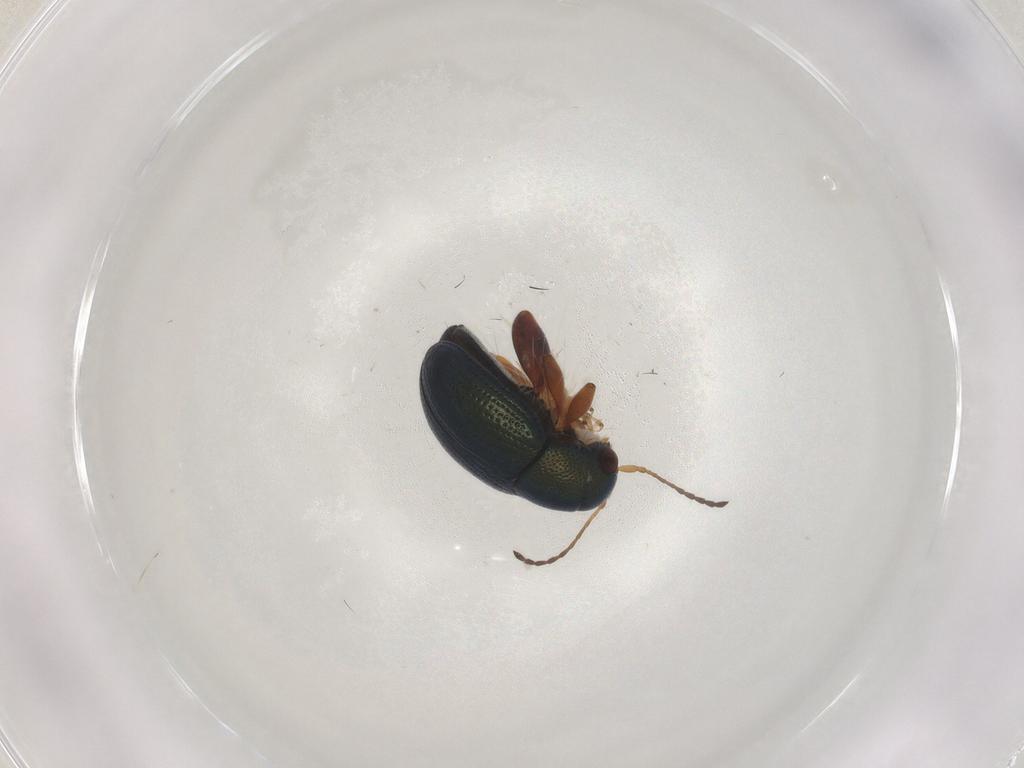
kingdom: Animalia
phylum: Arthropoda
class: Insecta
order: Coleoptera
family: Chrysomelidae
